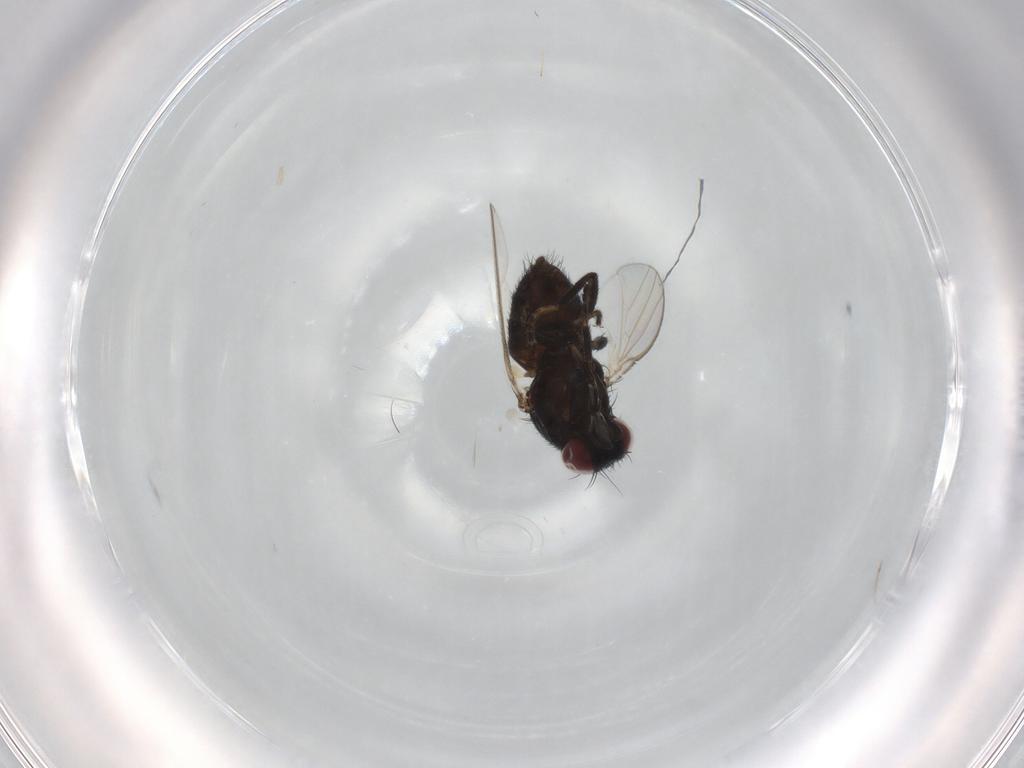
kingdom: Animalia
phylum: Arthropoda
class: Insecta
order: Diptera
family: Milichiidae
